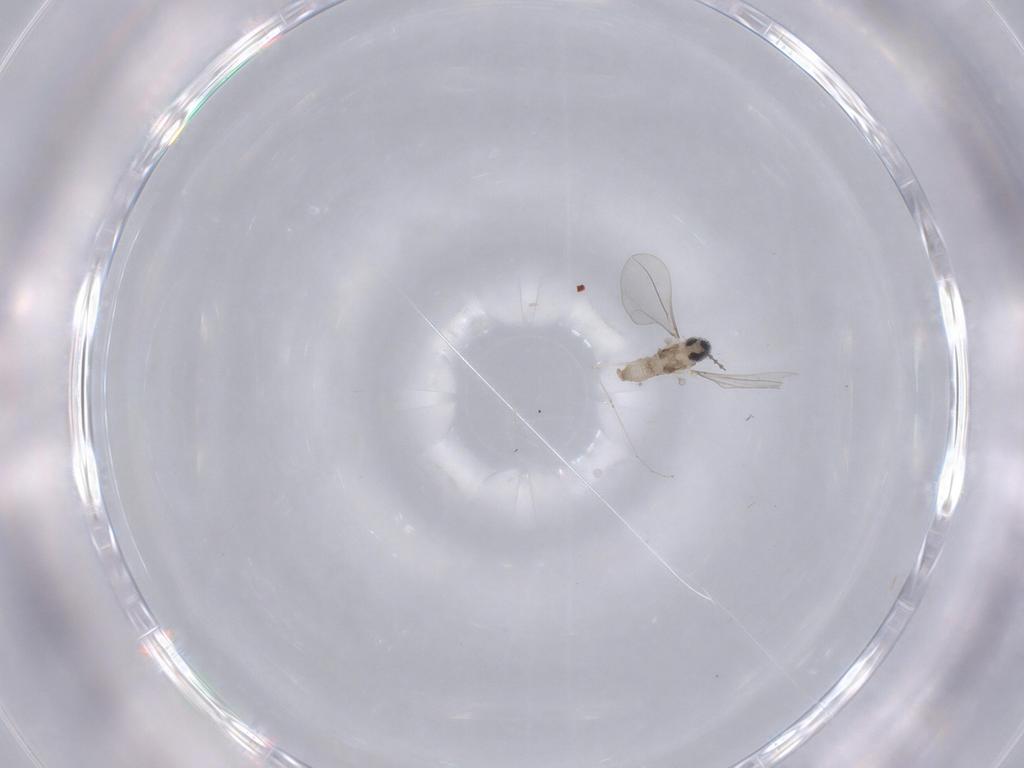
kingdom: Animalia
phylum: Arthropoda
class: Insecta
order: Diptera
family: Drosophilidae
